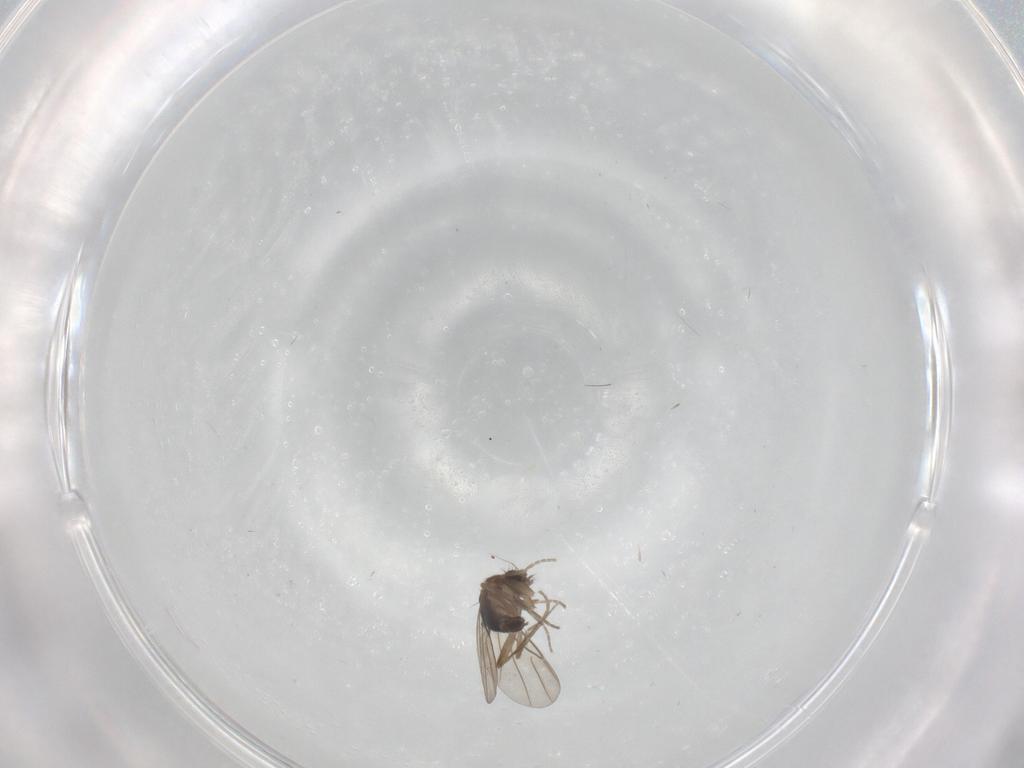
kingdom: Animalia
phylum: Arthropoda
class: Insecta
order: Diptera
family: Phoridae
